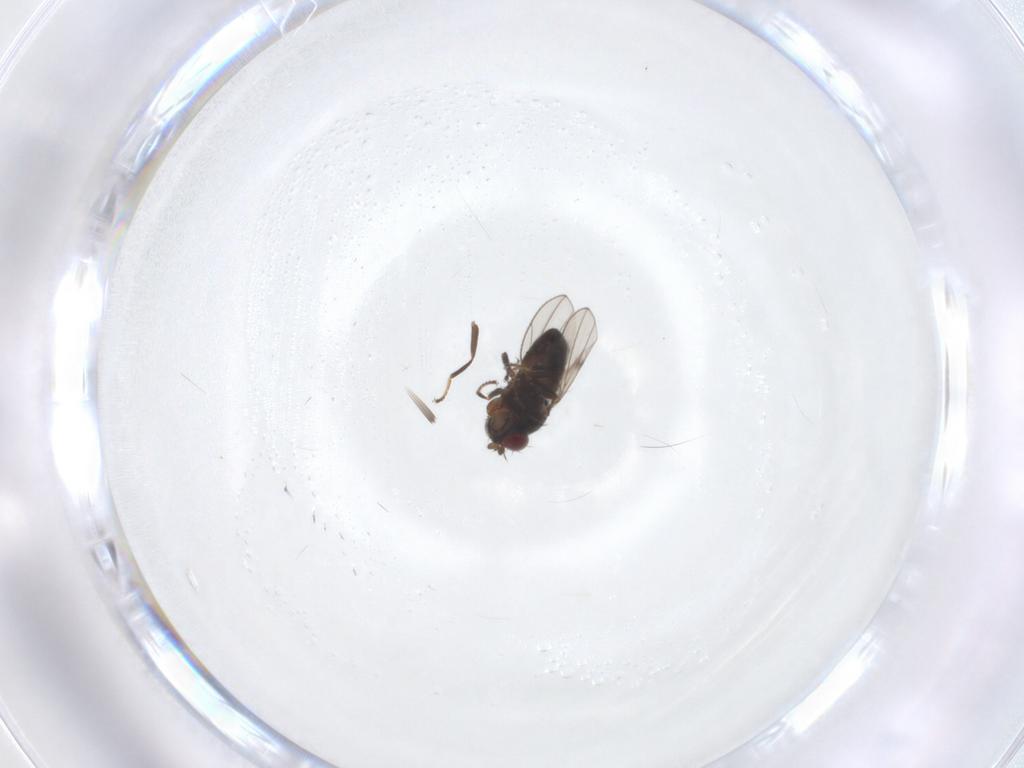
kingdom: Animalia
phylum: Arthropoda
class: Insecta
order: Diptera
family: Ephydridae
